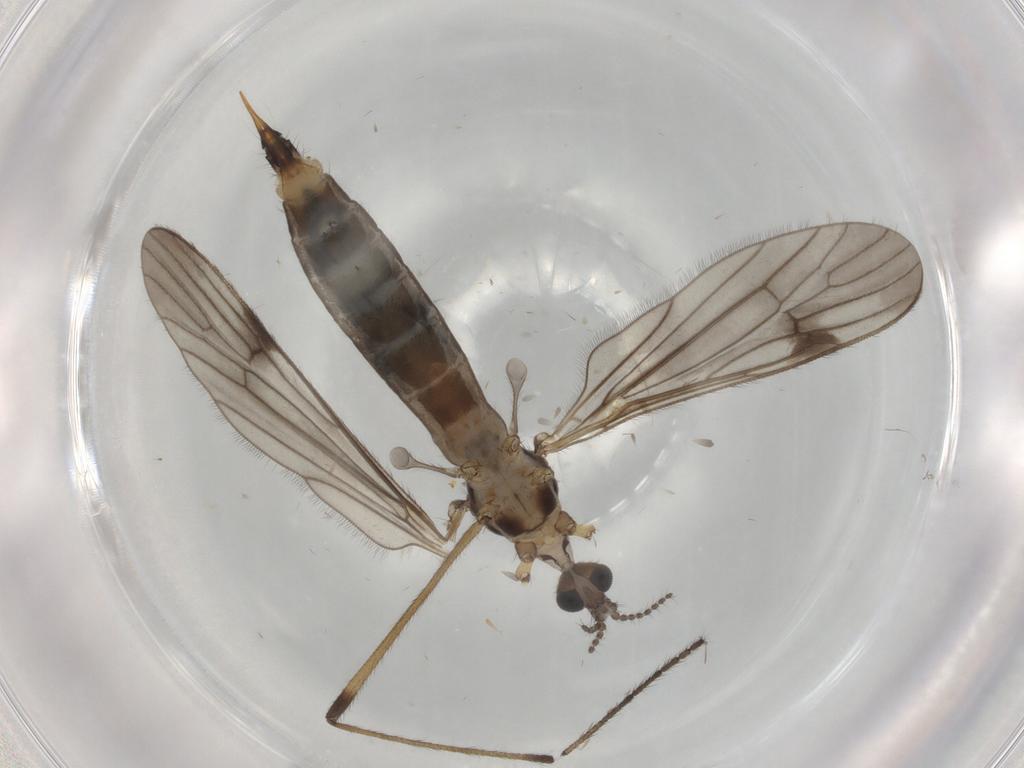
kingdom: Animalia
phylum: Arthropoda
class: Insecta
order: Diptera
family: Limoniidae
